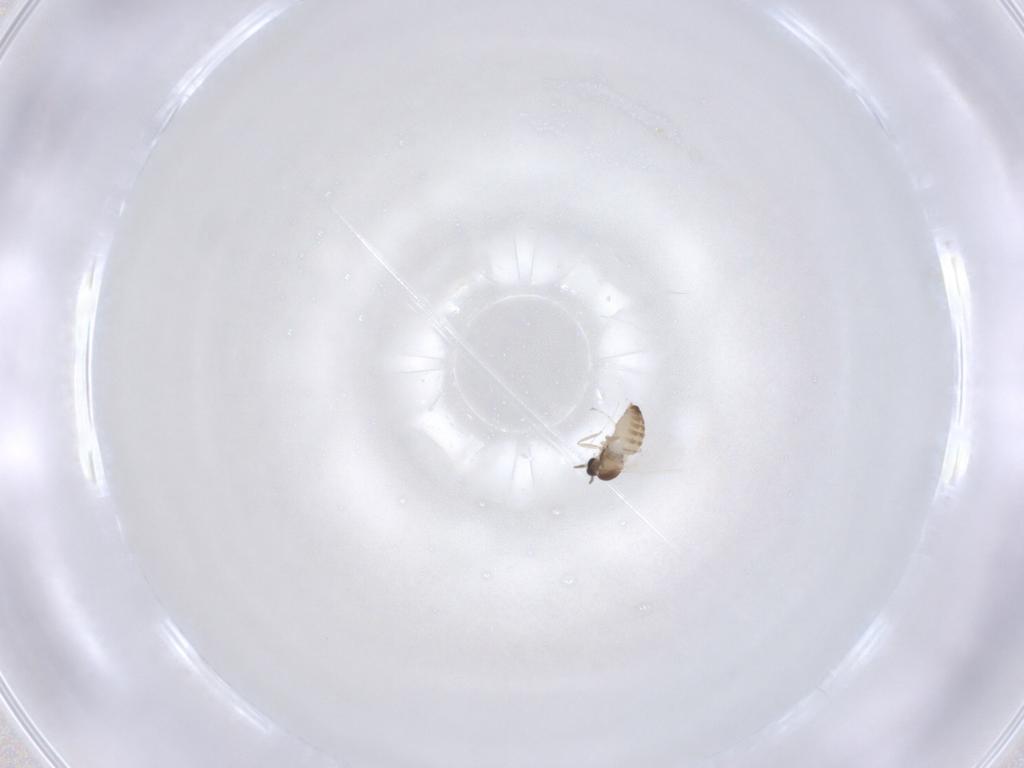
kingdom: Animalia
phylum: Arthropoda
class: Insecta
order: Diptera
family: Cecidomyiidae
